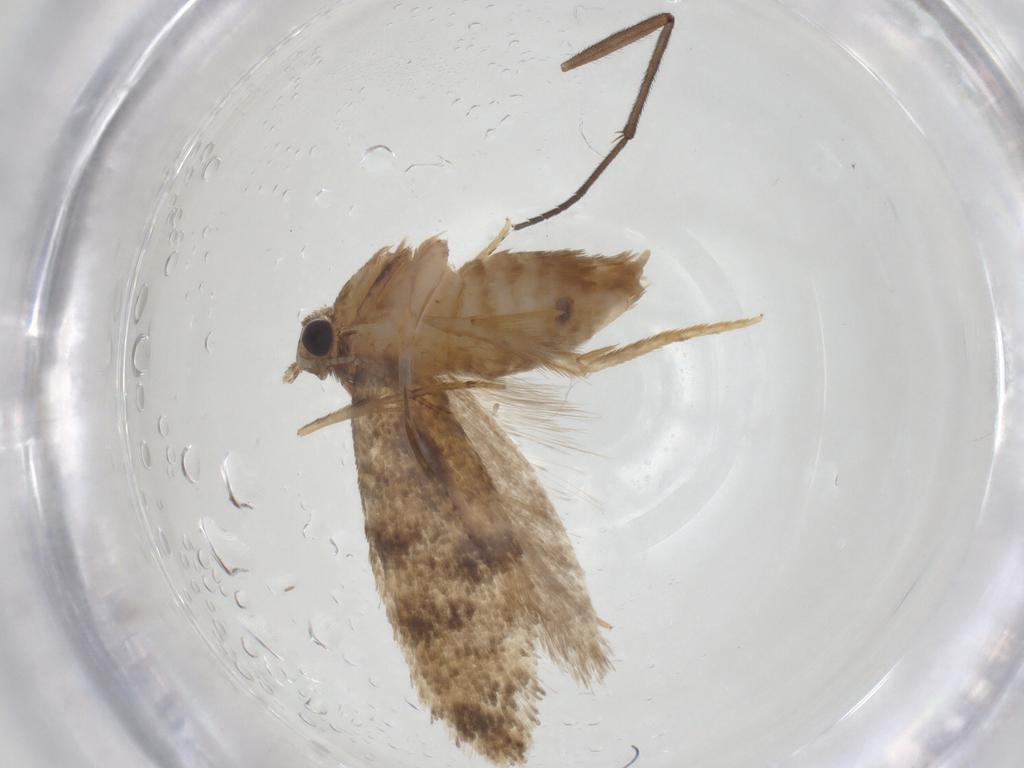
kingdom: Animalia
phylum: Arthropoda
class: Insecta
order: Lepidoptera
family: Tineidae
